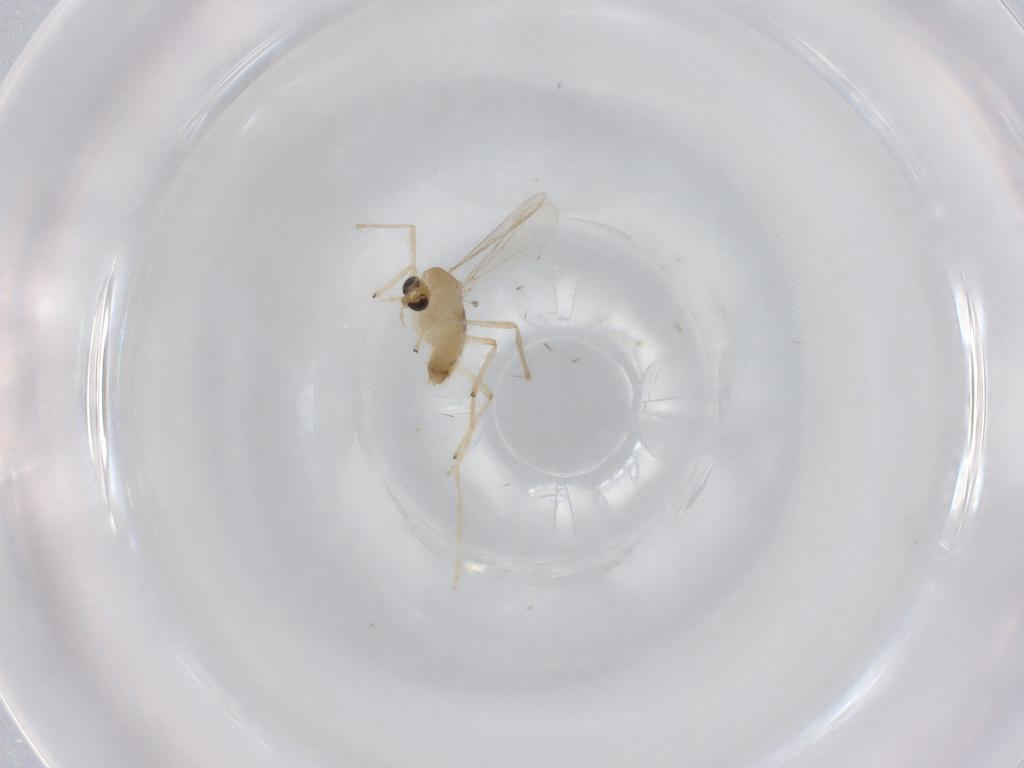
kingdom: Animalia
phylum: Arthropoda
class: Insecta
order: Diptera
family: Chironomidae
